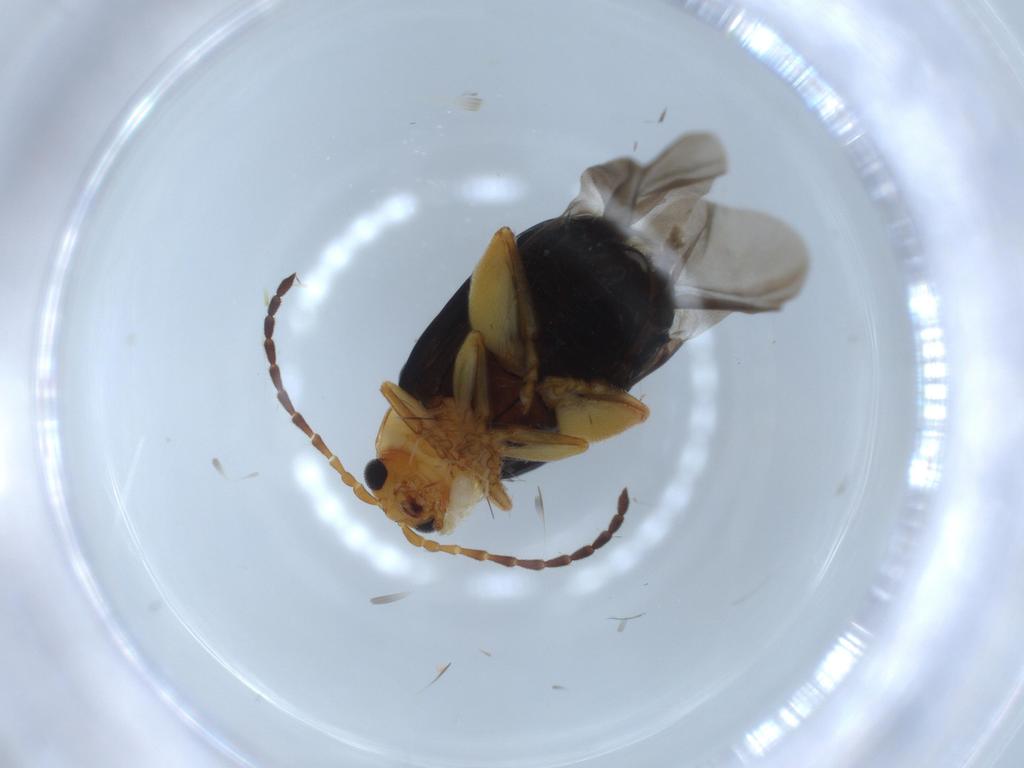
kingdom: Animalia
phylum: Arthropoda
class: Insecta
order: Coleoptera
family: Chrysomelidae
